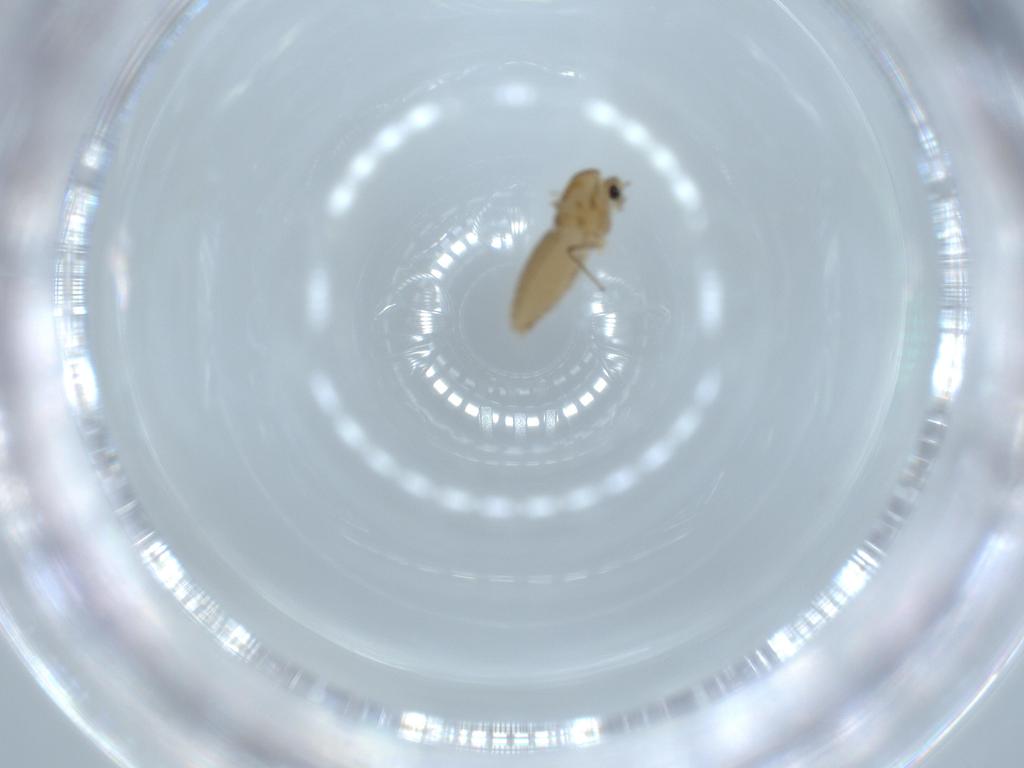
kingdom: Animalia
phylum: Arthropoda
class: Insecta
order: Diptera
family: Chironomidae
